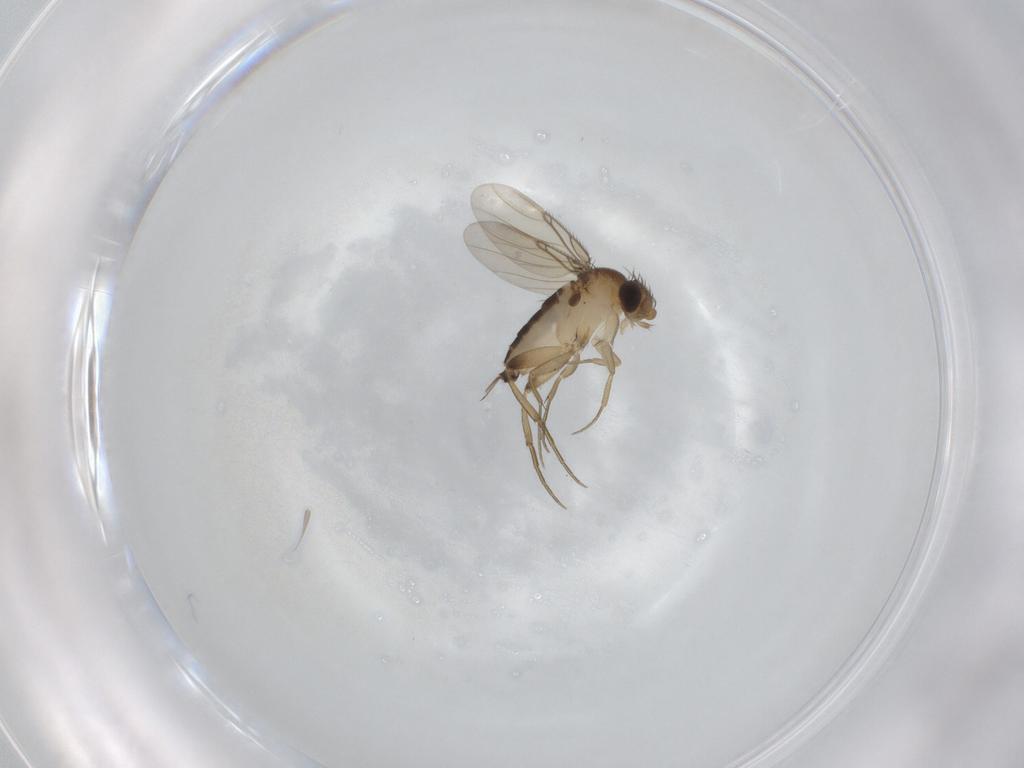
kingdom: Animalia
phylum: Arthropoda
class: Insecta
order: Diptera
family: Phoridae
